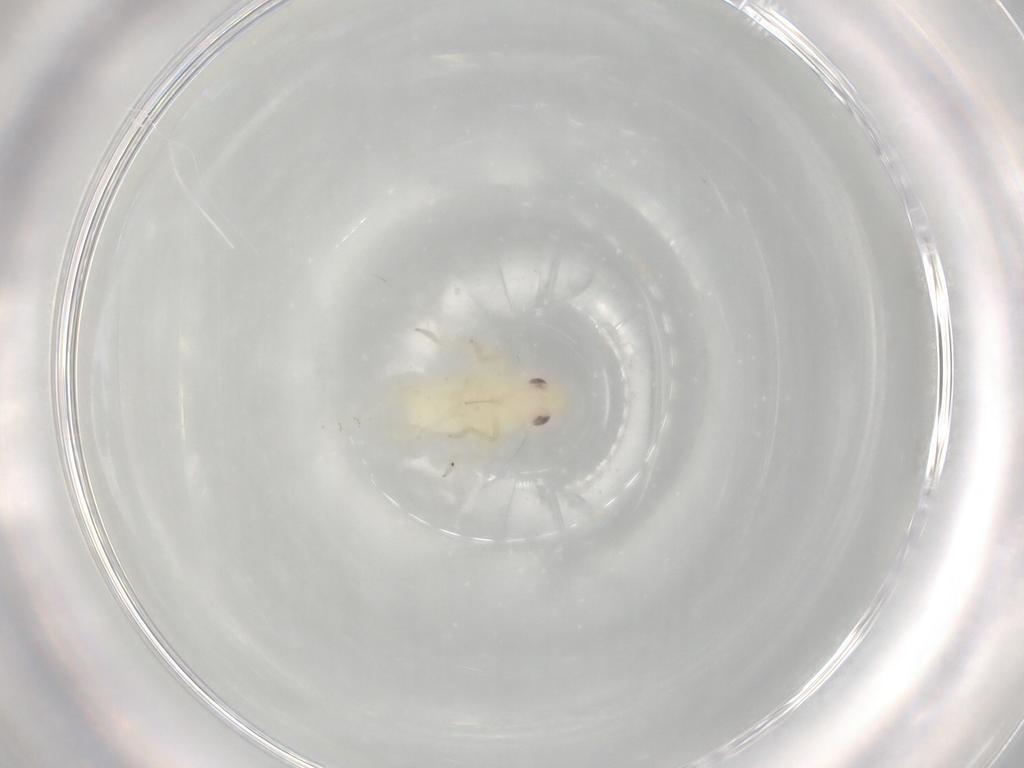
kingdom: Animalia
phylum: Arthropoda
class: Insecta
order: Hemiptera
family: Tropiduchidae
